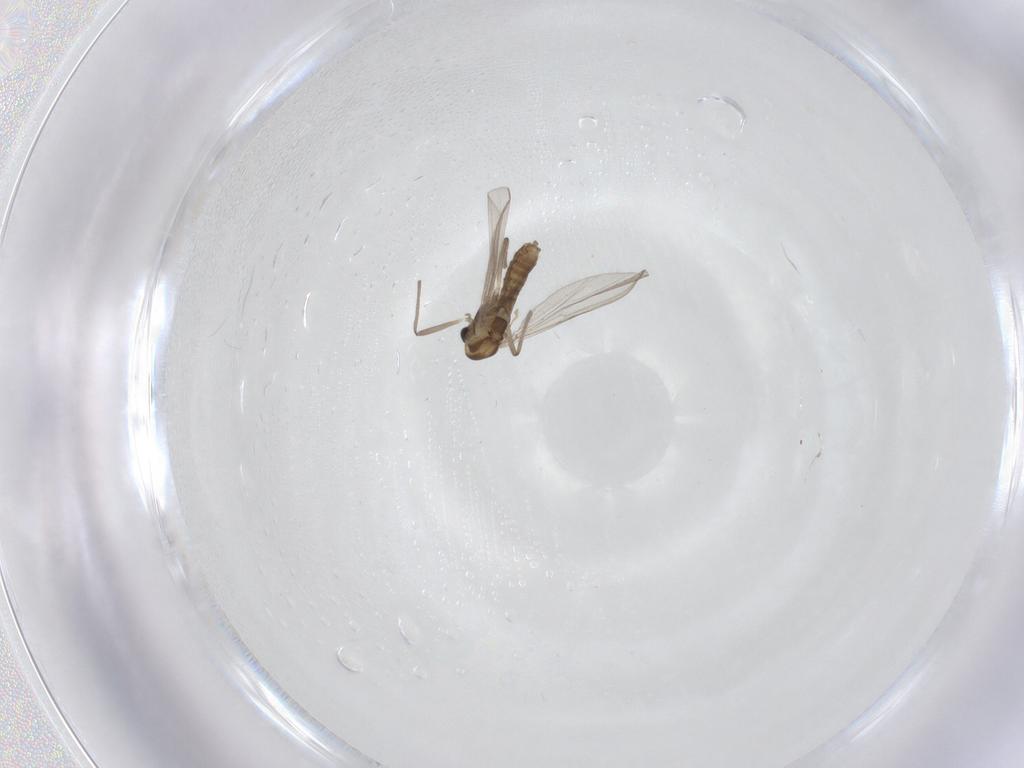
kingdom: Animalia
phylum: Arthropoda
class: Insecta
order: Diptera
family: Chironomidae
